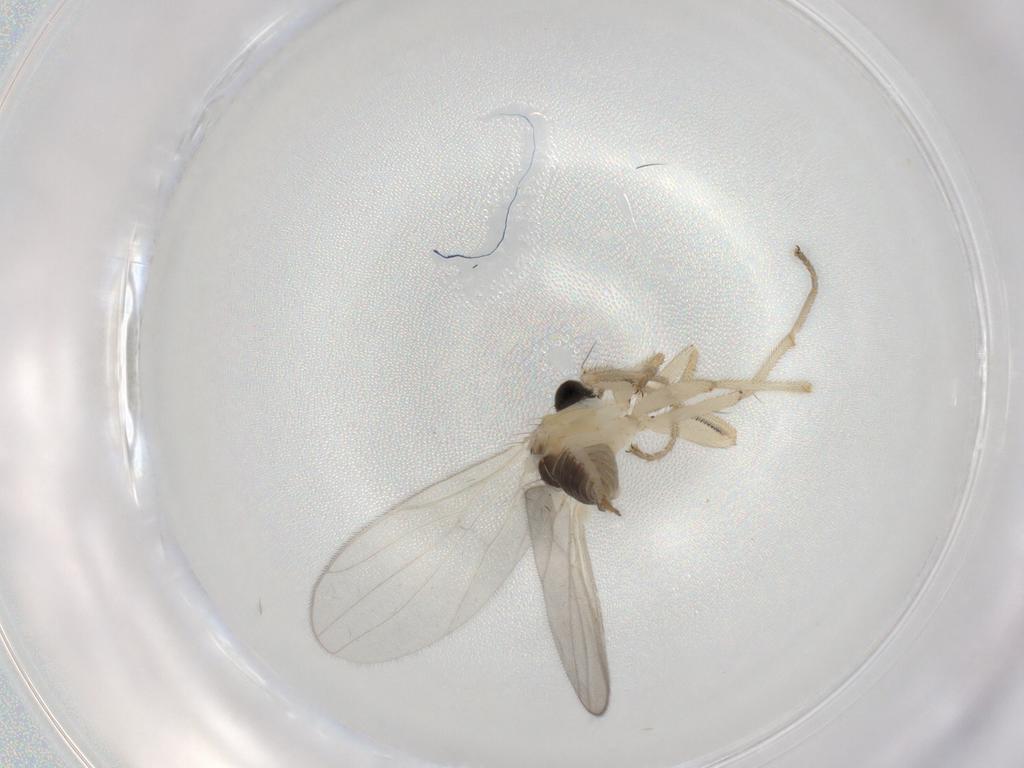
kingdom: Animalia
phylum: Arthropoda
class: Insecta
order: Diptera
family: Hybotidae
